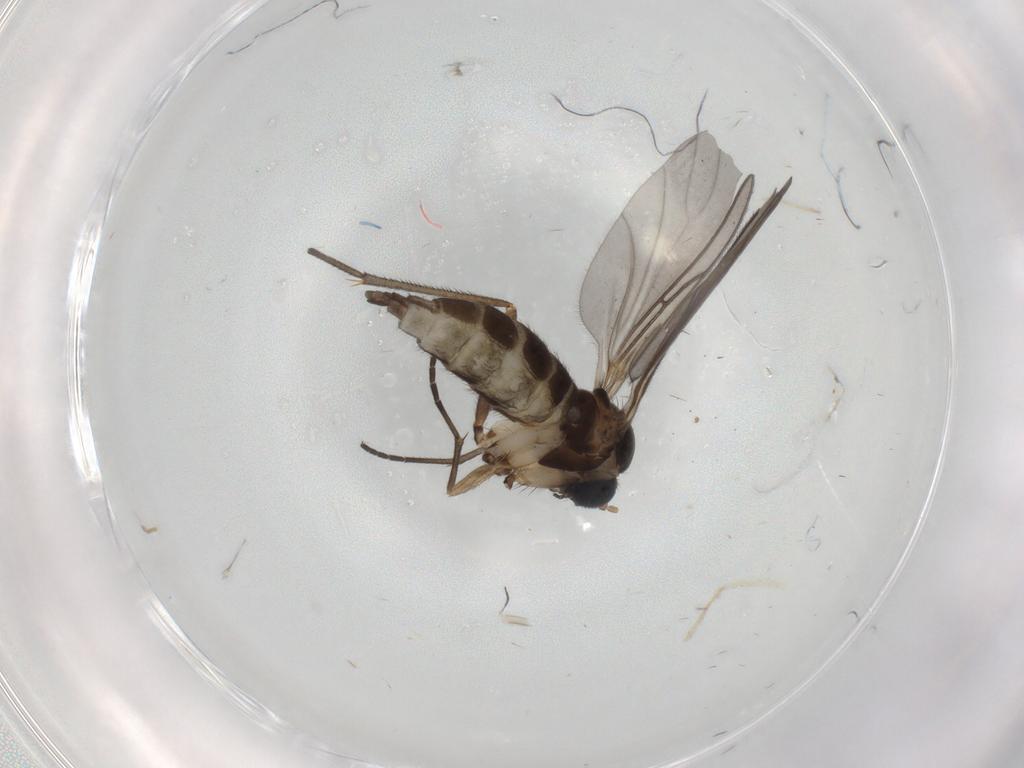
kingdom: Animalia
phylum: Arthropoda
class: Insecta
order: Diptera
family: Sciaridae
